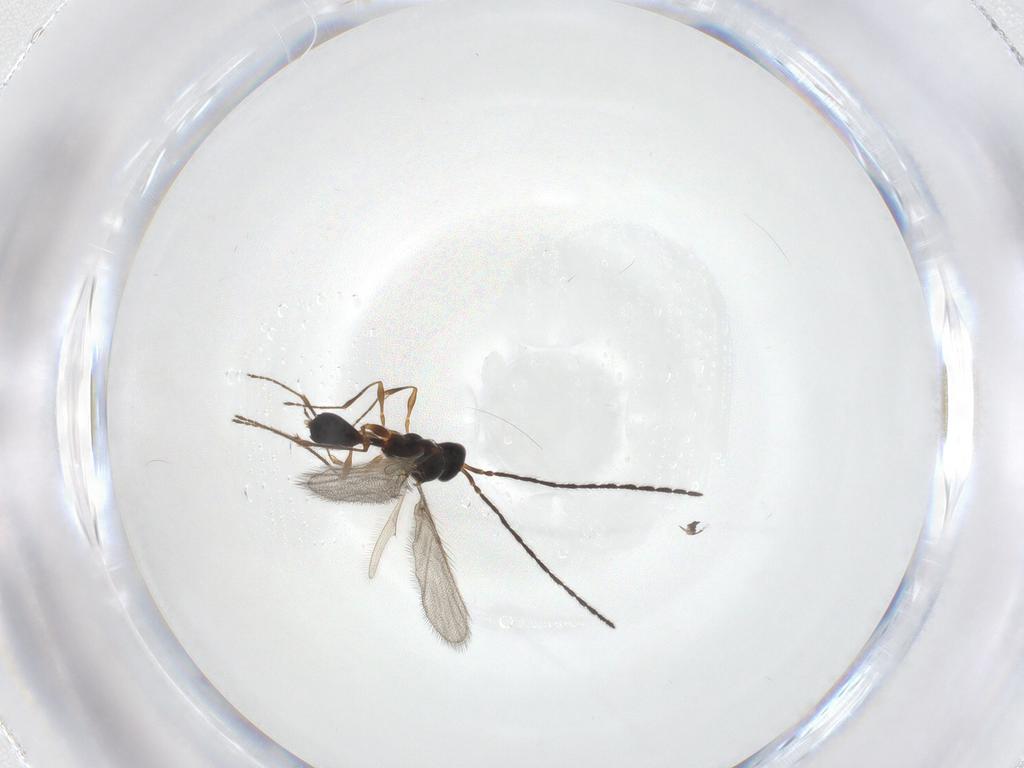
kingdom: Animalia
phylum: Arthropoda
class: Insecta
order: Hymenoptera
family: Diapriidae
